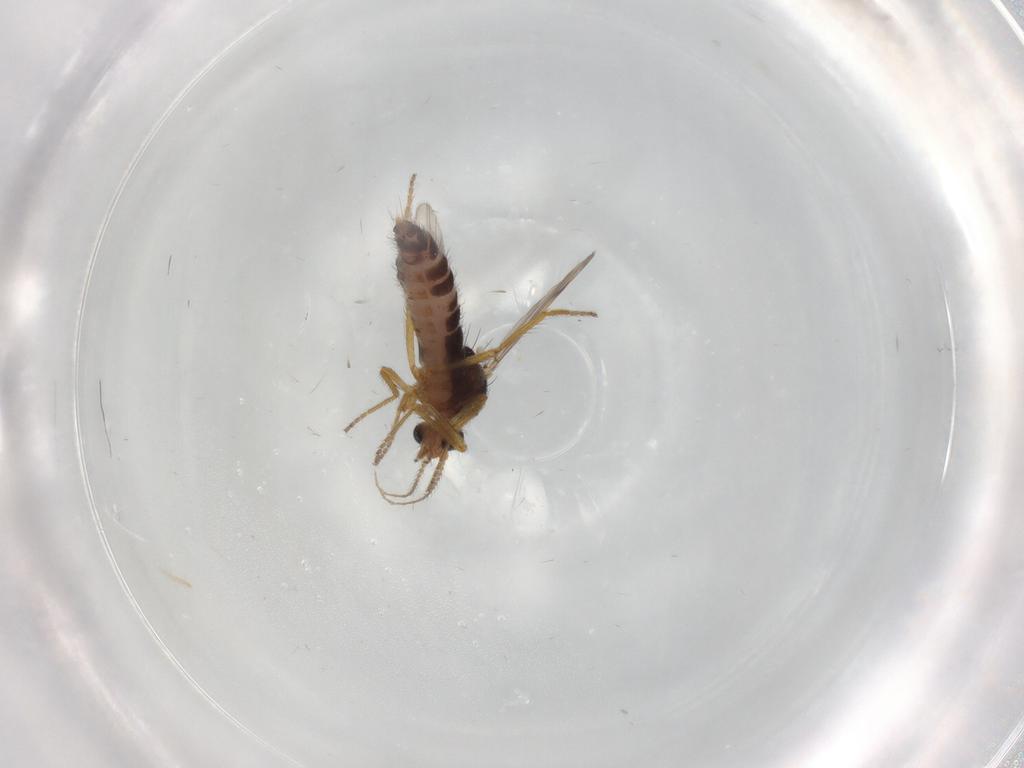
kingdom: Animalia
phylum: Arthropoda
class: Insecta
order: Diptera
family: Ceratopogonidae
